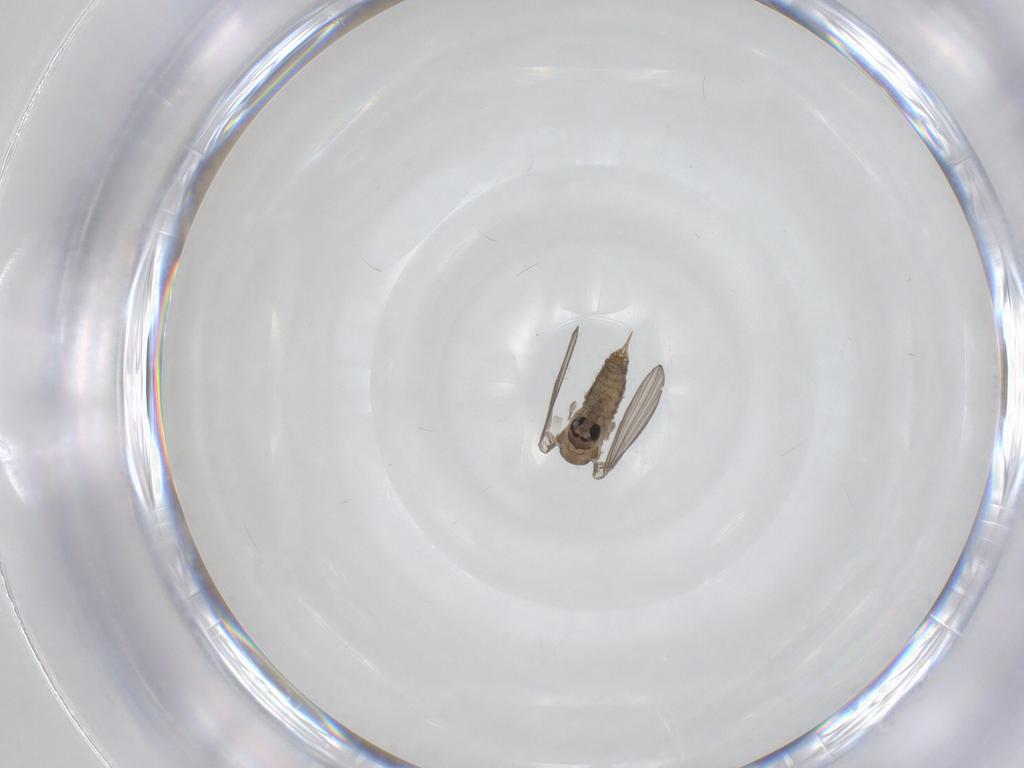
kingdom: Animalia
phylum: Arthropoda
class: Insecta
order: Diptera
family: Psychodidae
